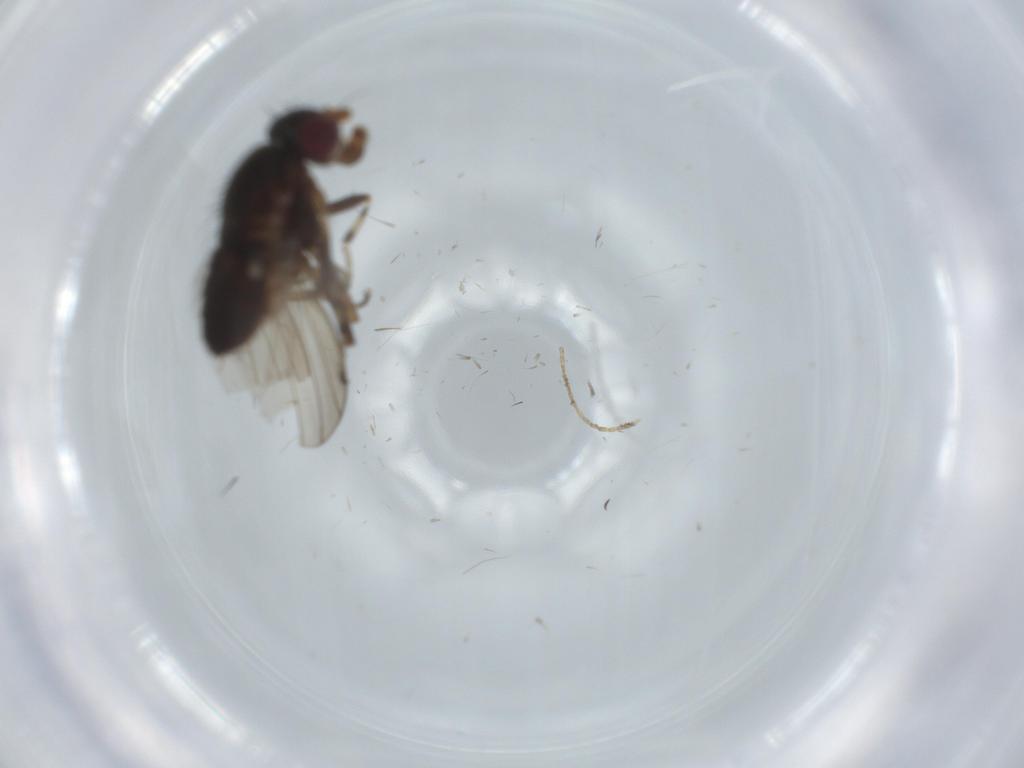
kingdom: Animalia
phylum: Arthropoda
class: Insecta
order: Diptera
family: Heleomyzidae
